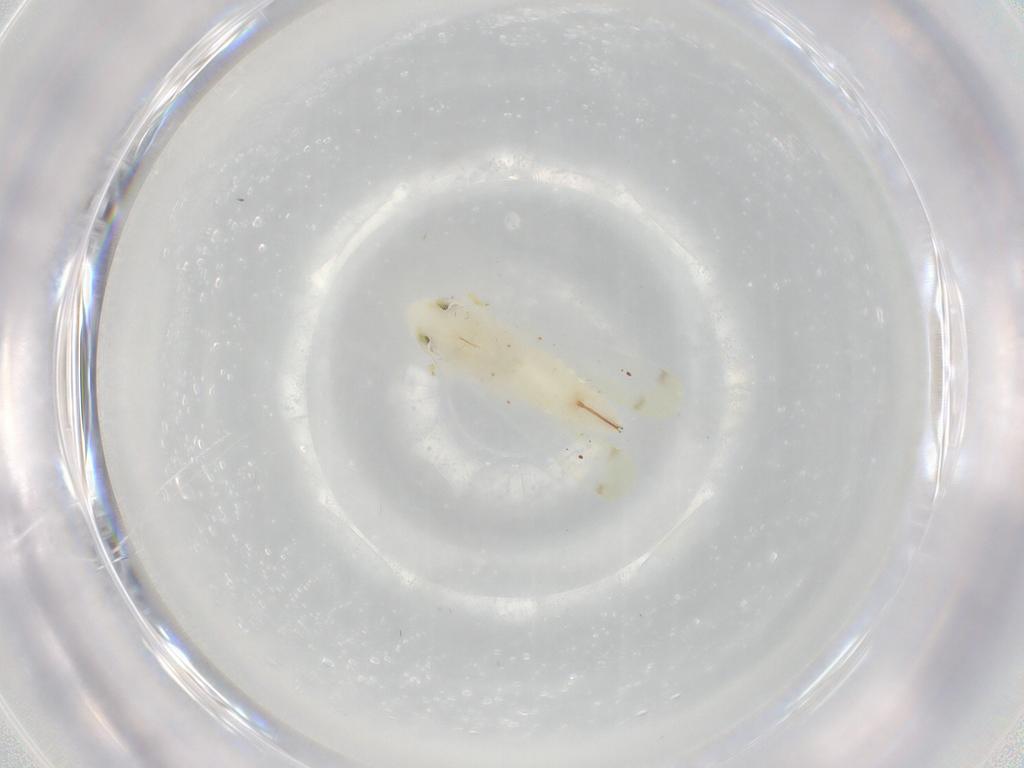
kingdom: Animalia
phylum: Arthropoda
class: Insecta
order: Hemiptera
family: Cicadellidae
